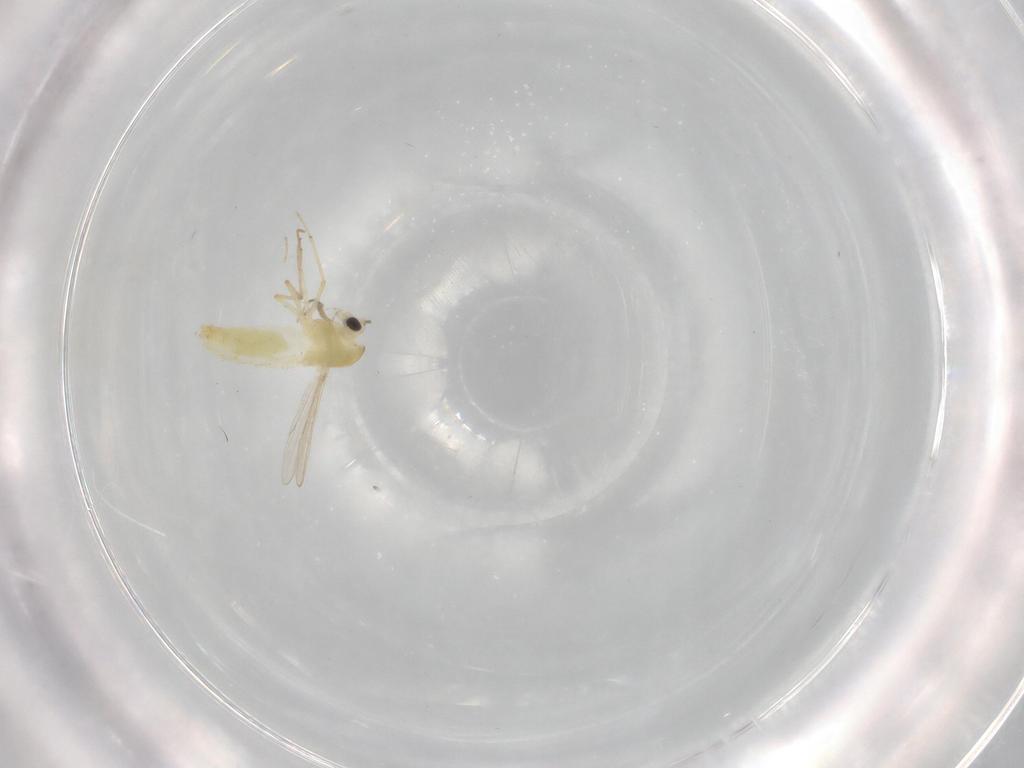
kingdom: Animalia
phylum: Arthropoda
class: Insecta
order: Diptera
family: Chironomidae
